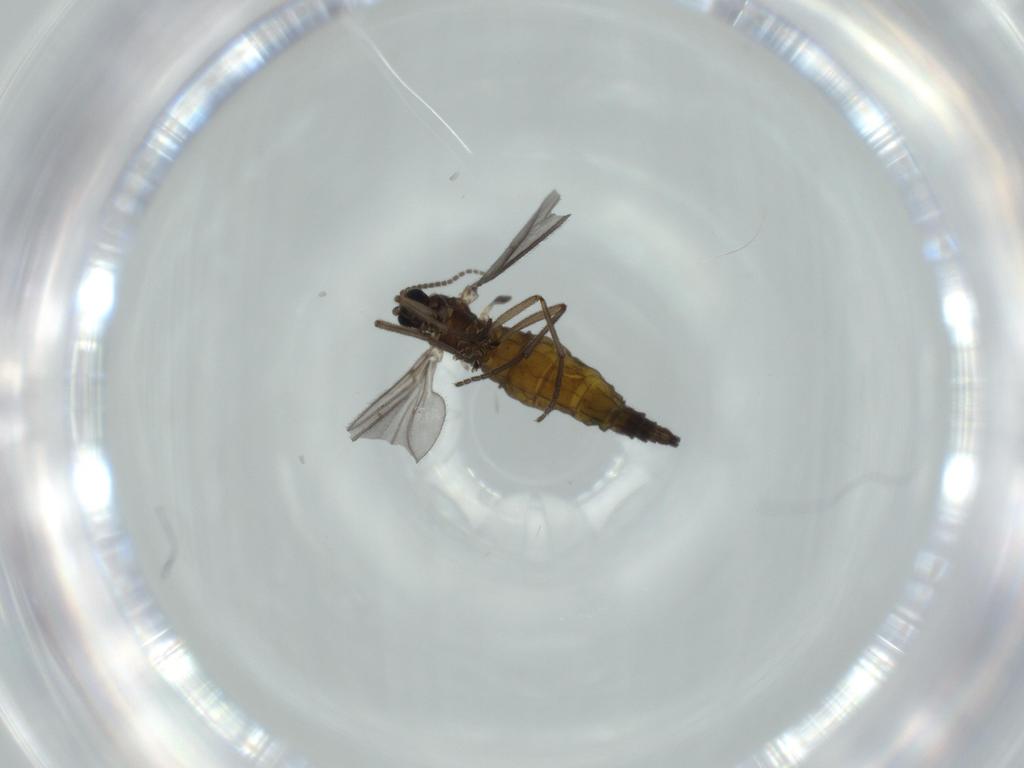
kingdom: Animalia
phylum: Arthropoda
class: Insecta
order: Diptera
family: Sciaridae
